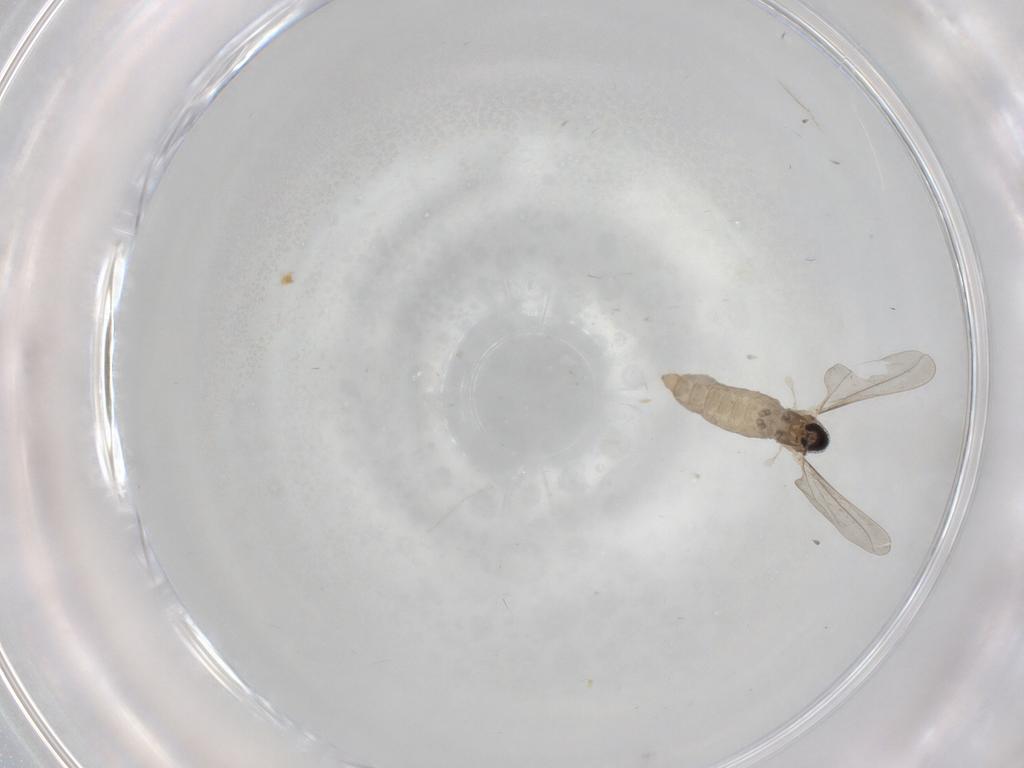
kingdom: Animalia
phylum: Arthropoda
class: Insecta
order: Diptera
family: Cecidomyiidae
